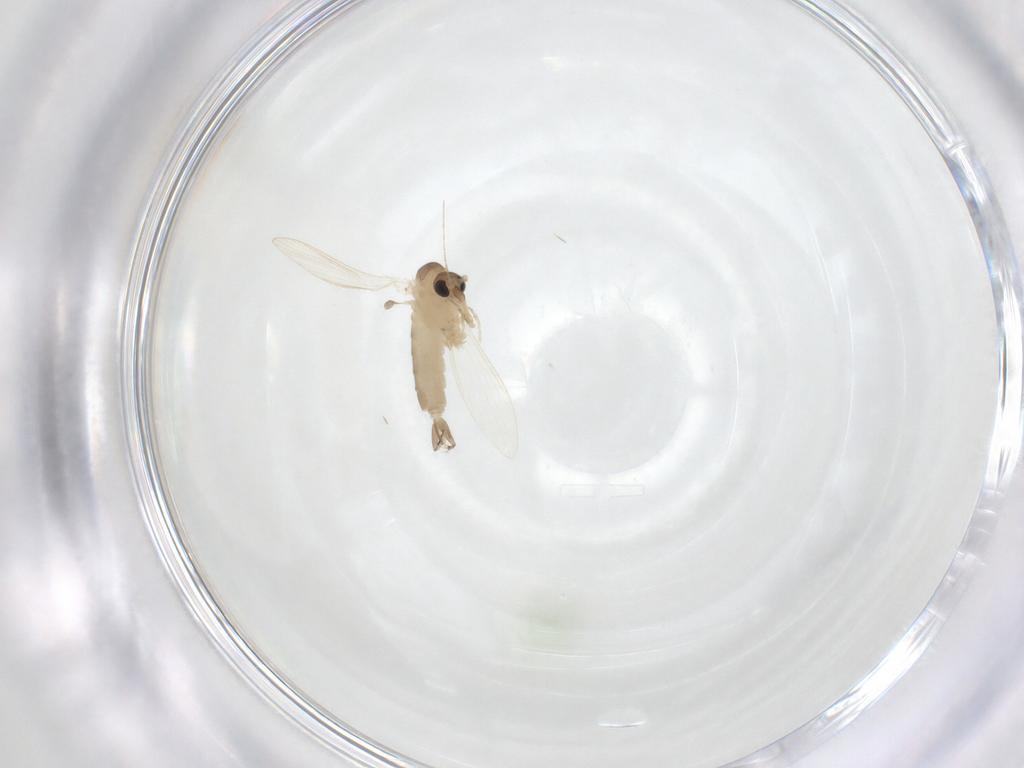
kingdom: Animalia
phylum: Arthropoda
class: Insecta
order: Diptera
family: Psychodidae
